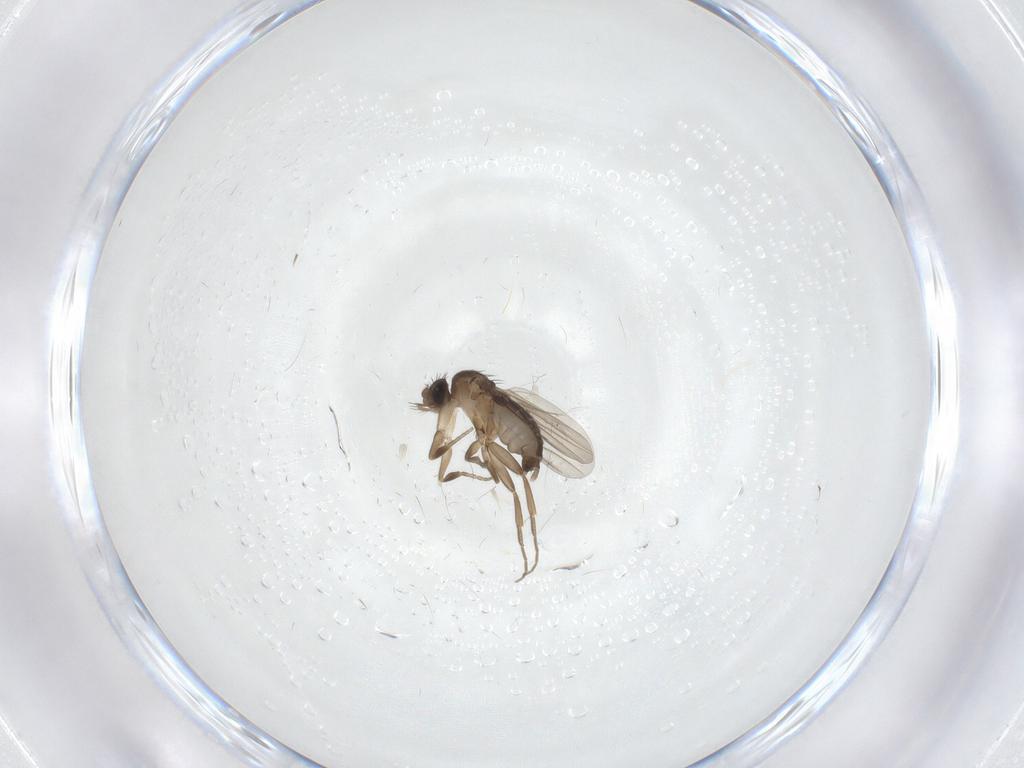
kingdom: Animalia
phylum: Arthropoda
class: Insecta
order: Diptera
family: Phoridae
